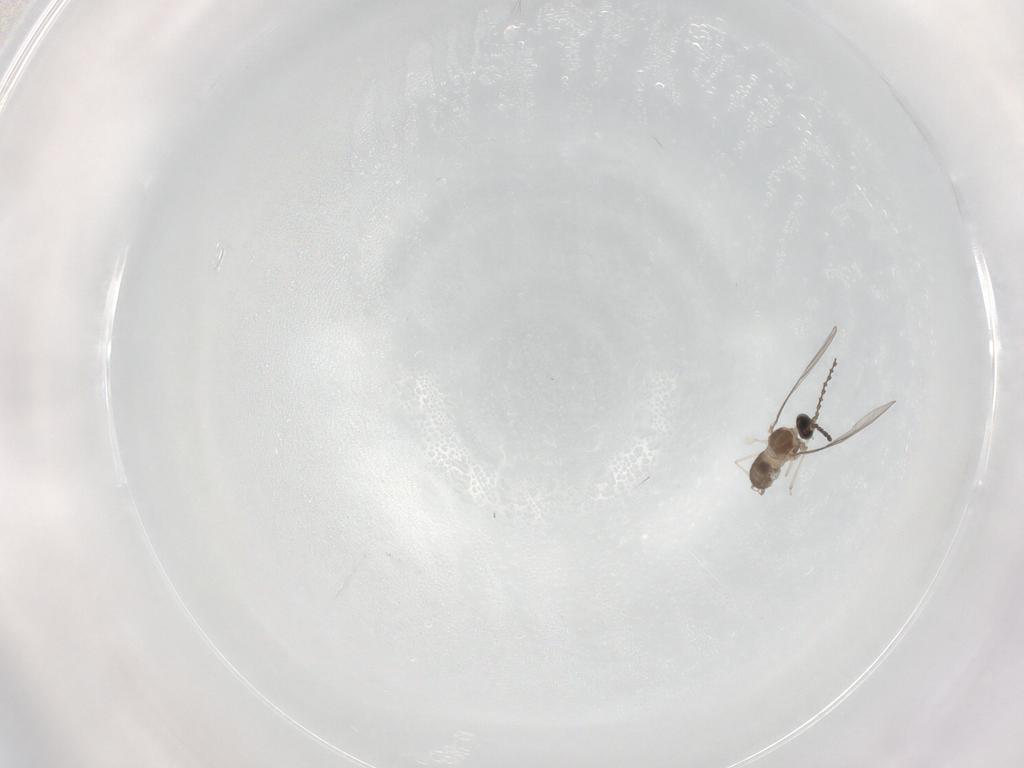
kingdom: Animalia
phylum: Arthropoda
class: Insecta
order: Diptera
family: Cecidomyiidae
